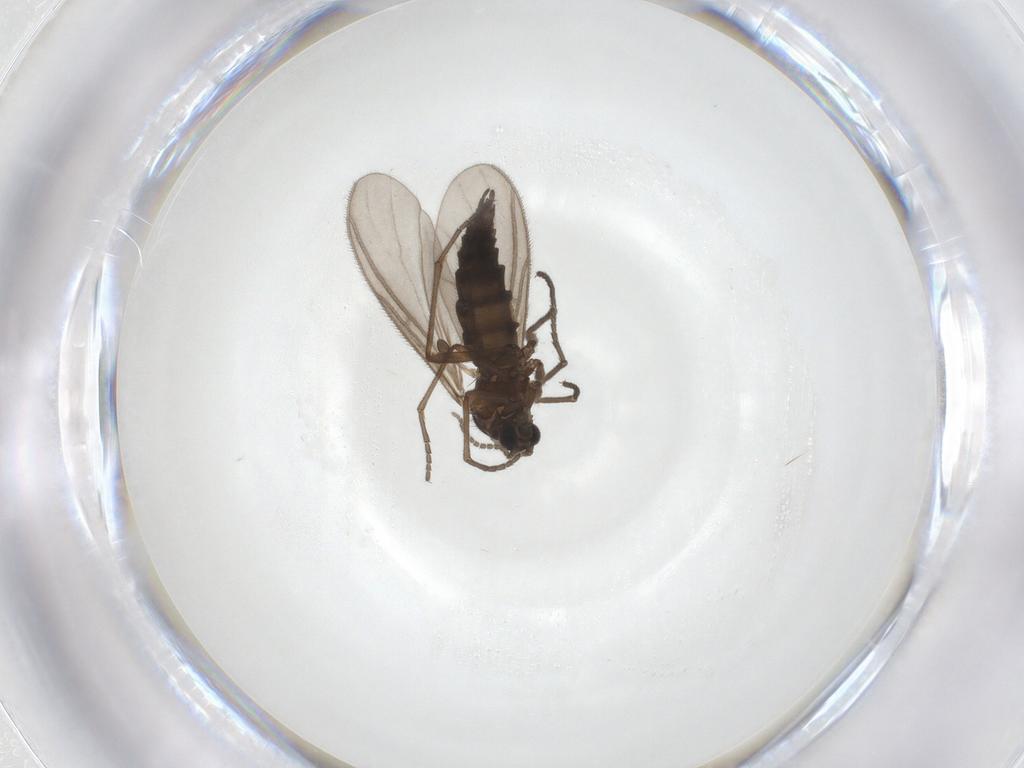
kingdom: Animalia
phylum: Arthropoda
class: Insecta
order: Diptera
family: Sciaridae
